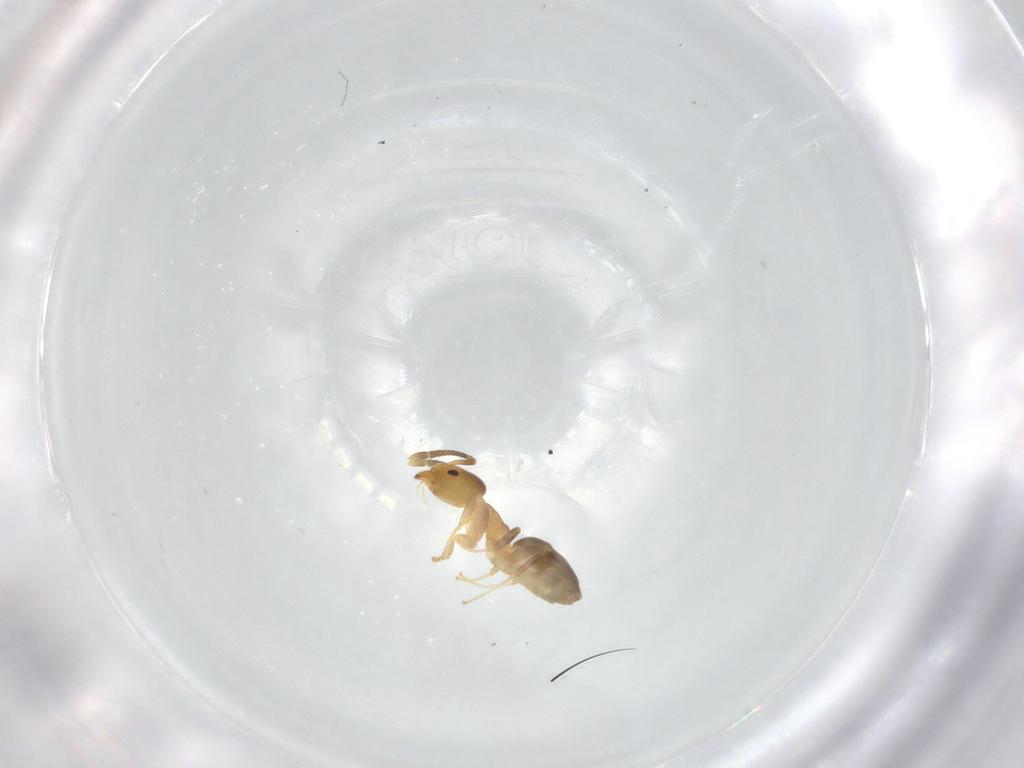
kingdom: Animalia
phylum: Arthropoda
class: Insecta
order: Hymenoptera
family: Formicidae
